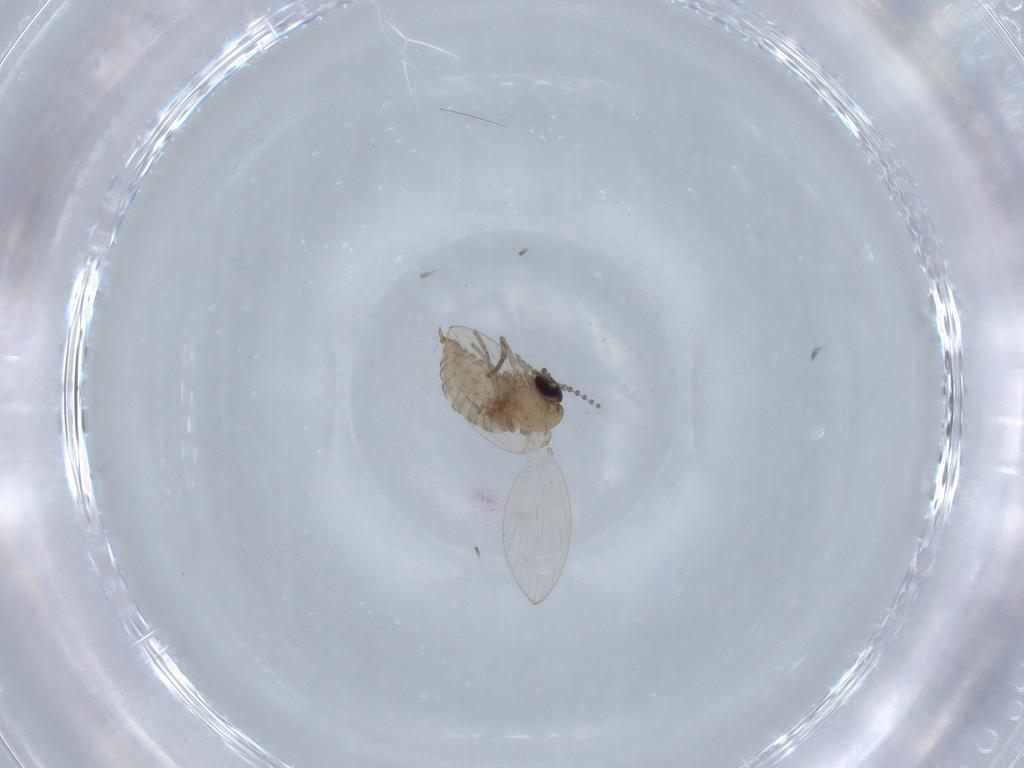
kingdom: Animalia
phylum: Arthropoda
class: Insecta
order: Diptera
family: Psychodidae
